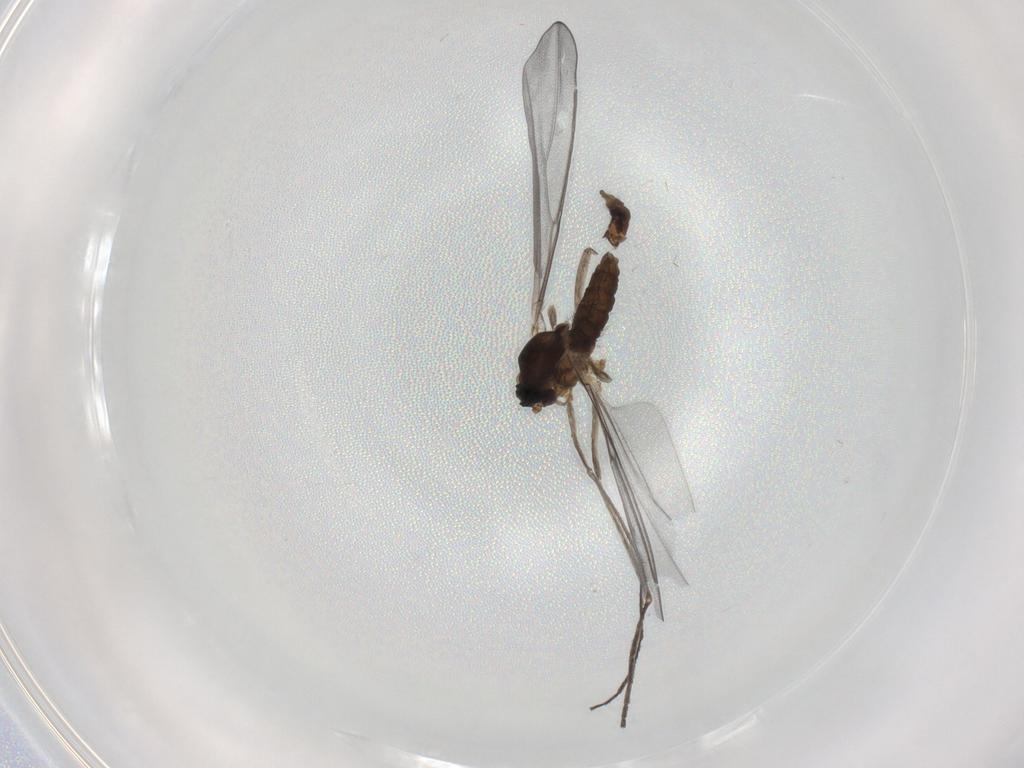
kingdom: Animalia
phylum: Arthropoda
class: Insecta
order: Diptera
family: Cecidomyiidae
